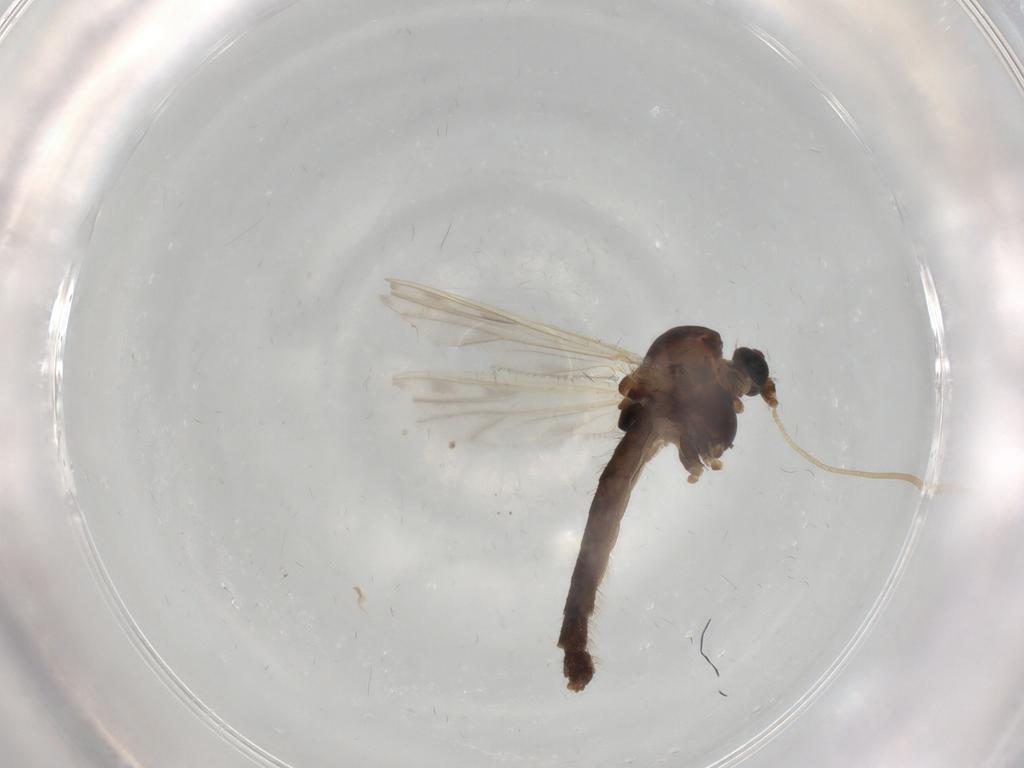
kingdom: Animalia
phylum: Arthropoda
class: Insecta
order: Diptera
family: Chironomidae
